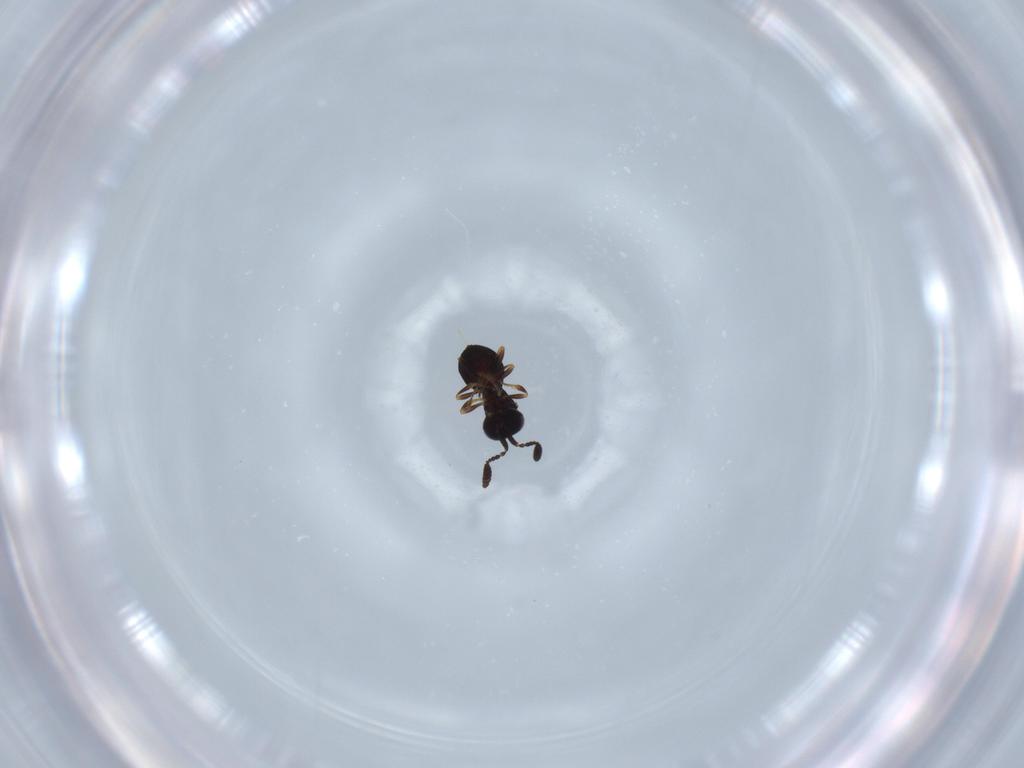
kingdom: Animalia
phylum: Arthropoda
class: Insecta
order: Hymenoptera
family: Scelionidae
